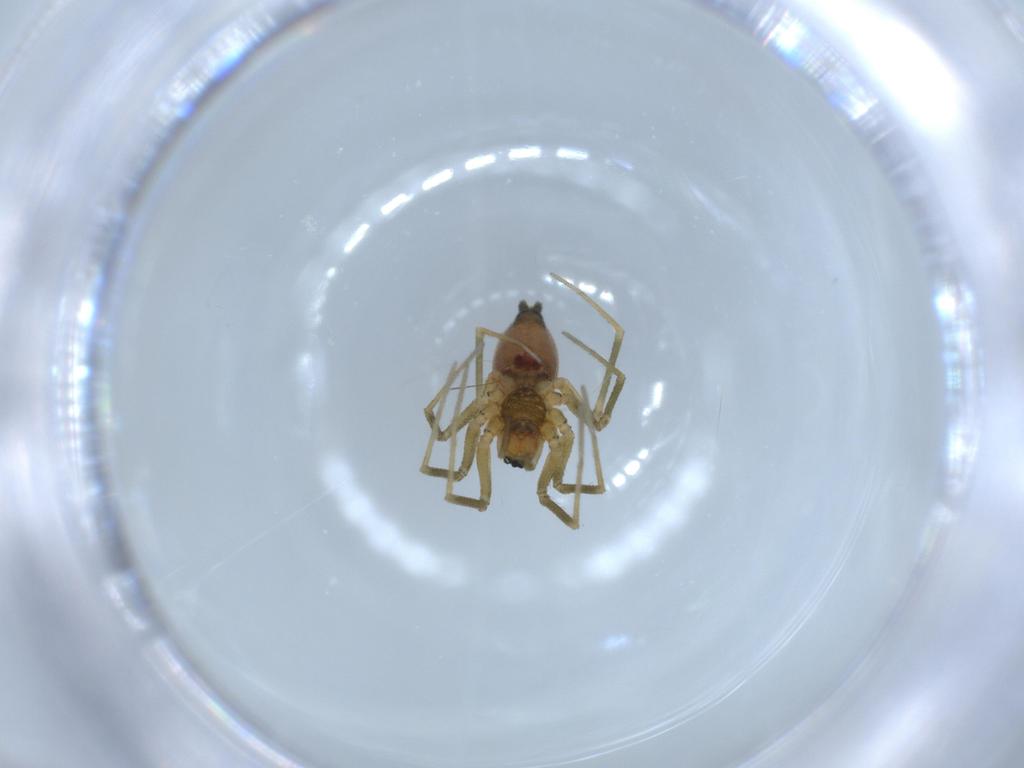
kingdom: Animalia
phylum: Arthropoda
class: Arachnida
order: Araneae
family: Linyphiidae
